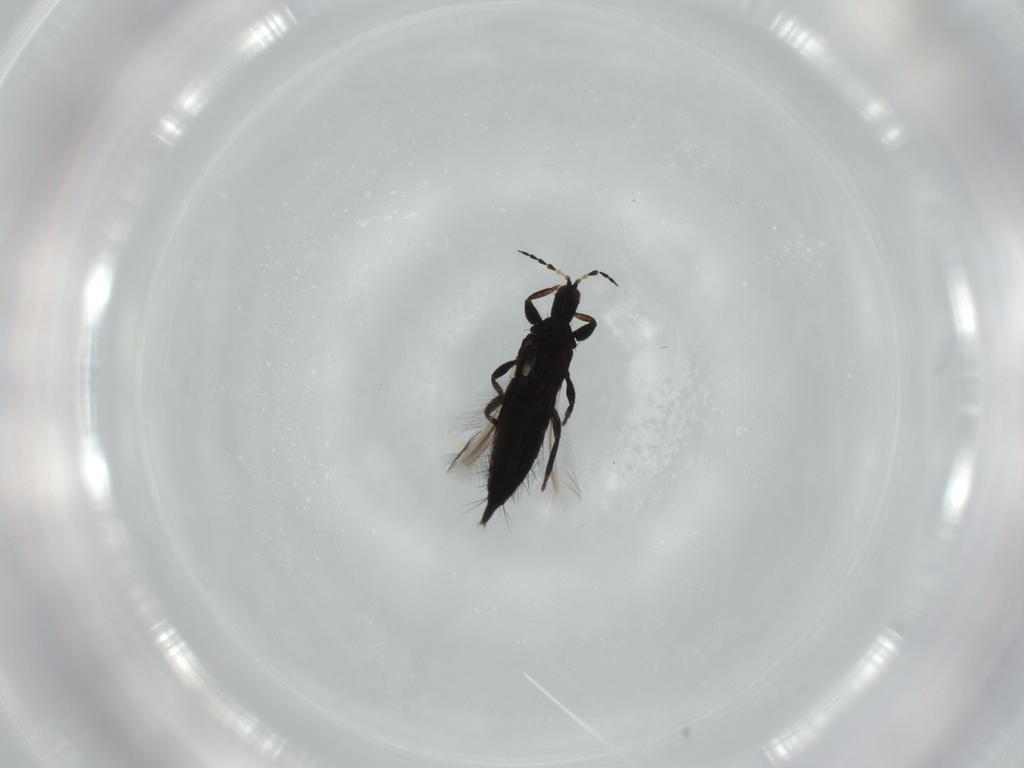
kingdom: Animalia
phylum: Arthropoda
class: Insecta
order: Thysanoptera
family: Phlaeothripidae
